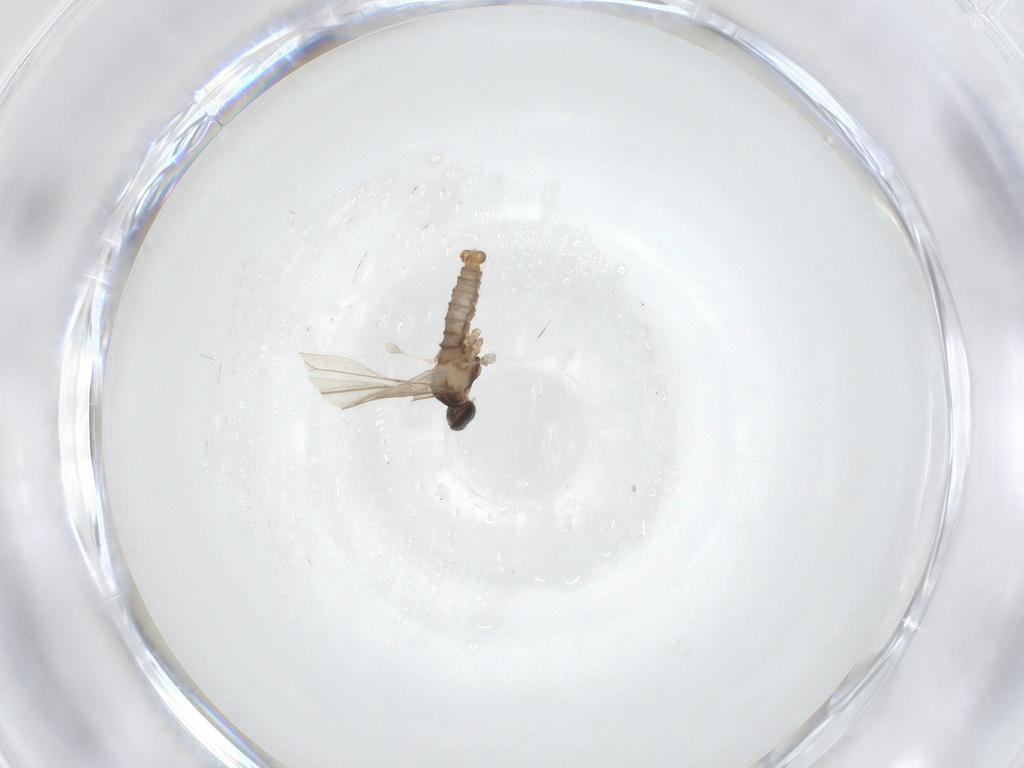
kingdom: Animalia
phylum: Arthropoda
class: Insecta
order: Diptera
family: Cecidomyiidae
